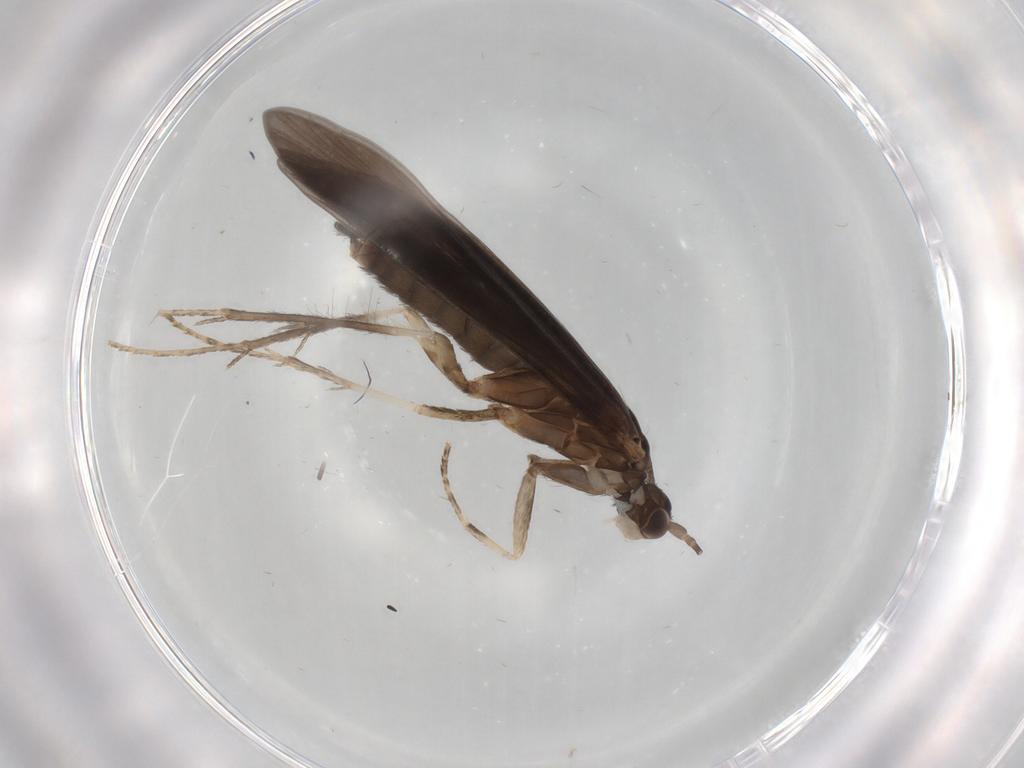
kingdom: Animalia
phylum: Arthropoda
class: Insecta
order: Trichoptera
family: Xiphocentronidae
